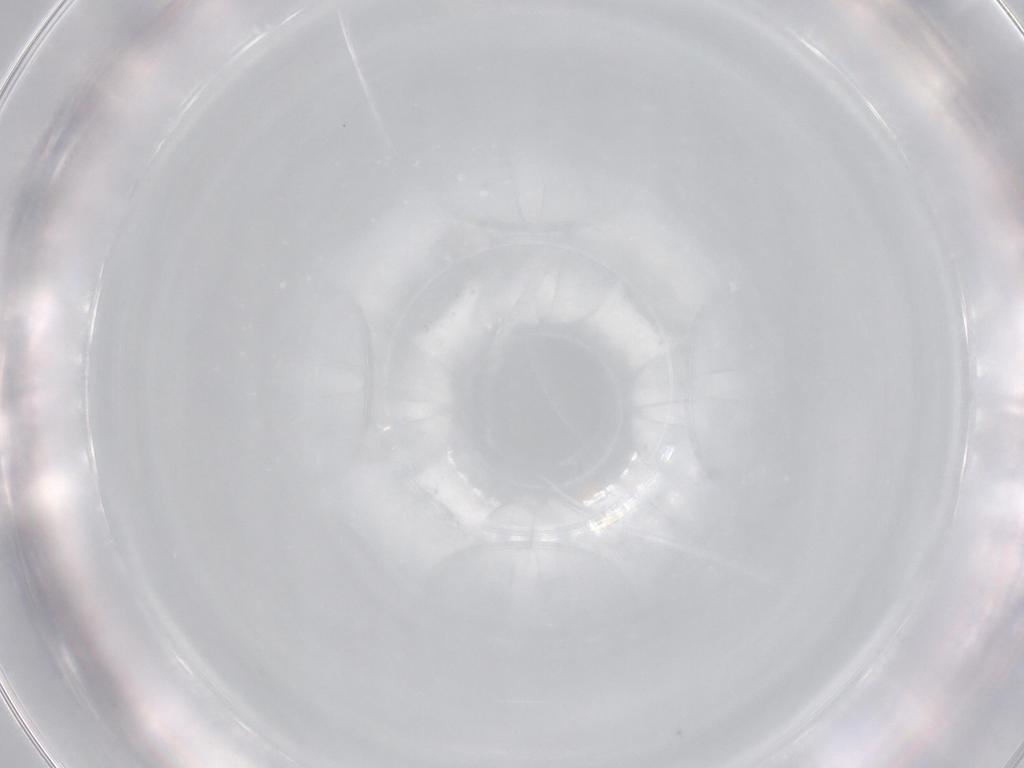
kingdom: Animalia
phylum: Arthropoda
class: Insecta
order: Diptera
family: Chironomidae
